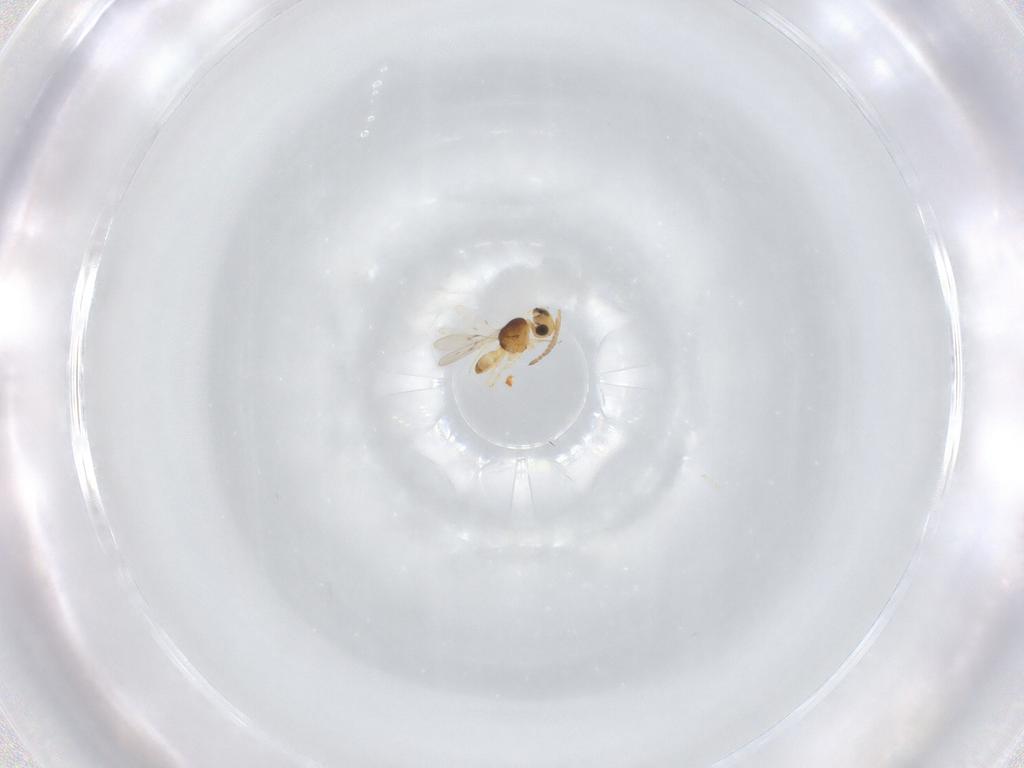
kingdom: Animalia
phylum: Arthropoda
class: Insecta
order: Hymenoptera
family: Scelionidae
